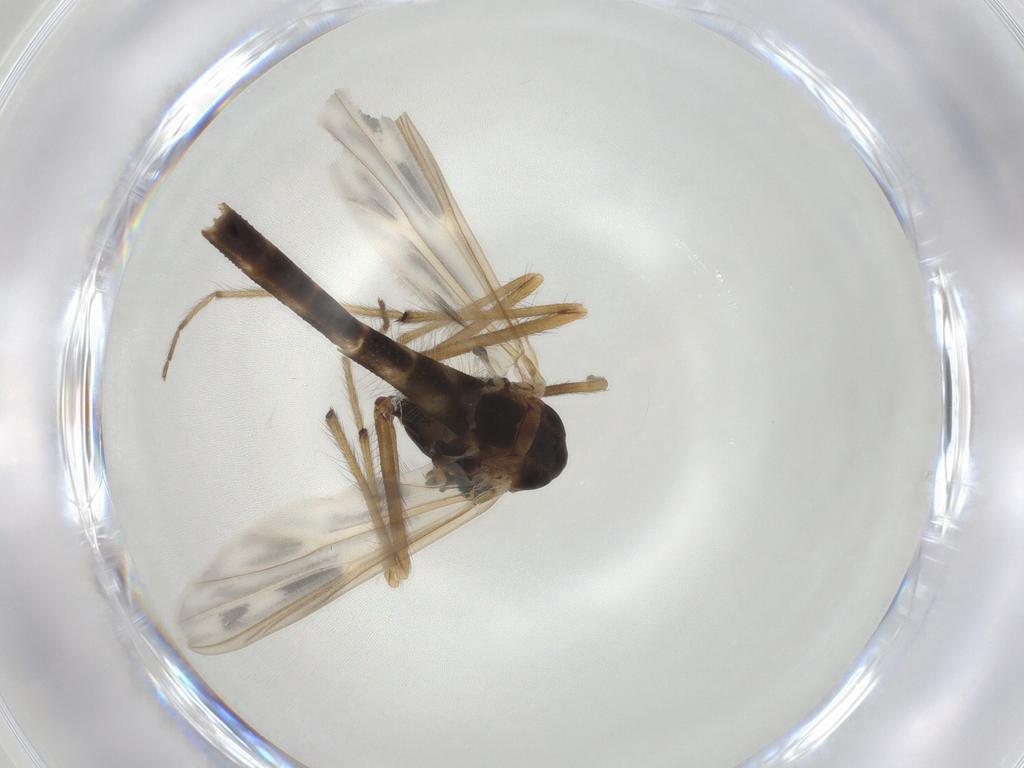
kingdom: Animalia
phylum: Arthropoda
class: Insecta
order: Diptera
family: Chironomidae
